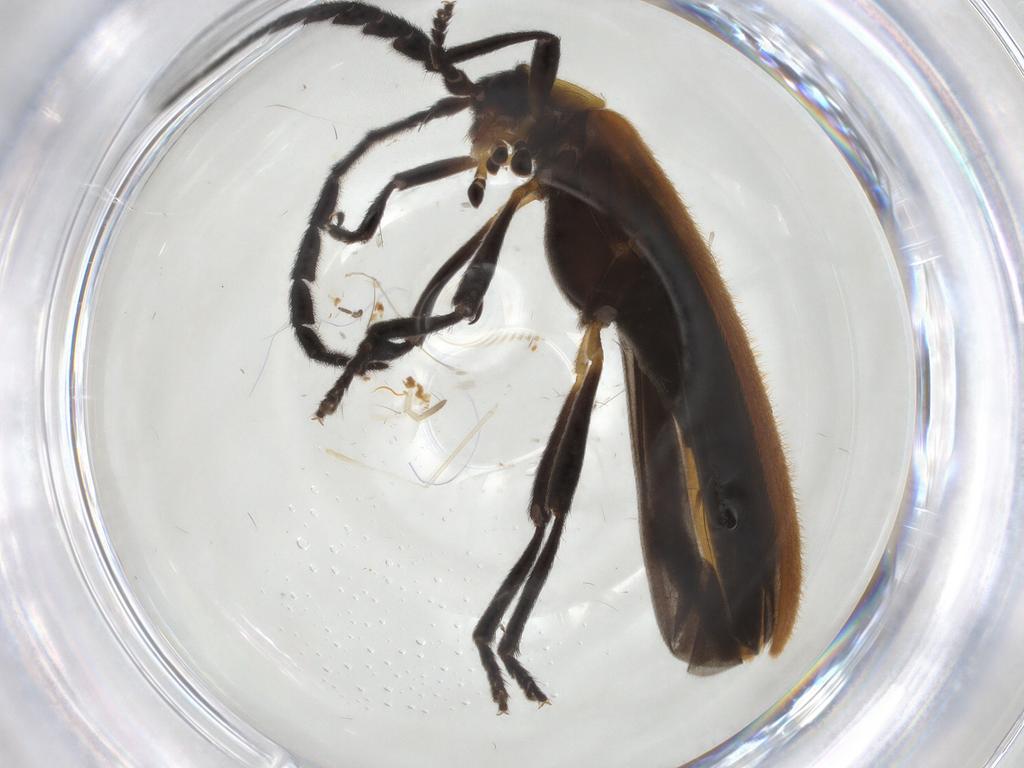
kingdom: Animalia
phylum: Arthropoda
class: Insecta
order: Coleoptera
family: Lycidae
